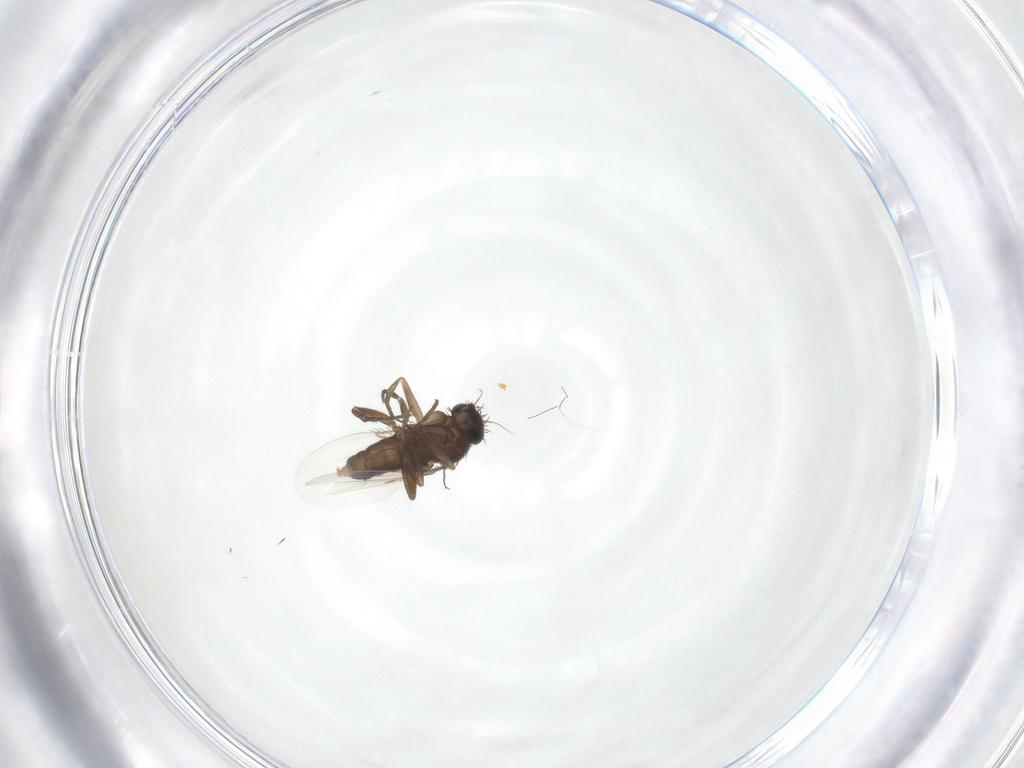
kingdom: Animalia
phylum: Arthropoda
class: Insecta
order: Diptera
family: Phoridae
